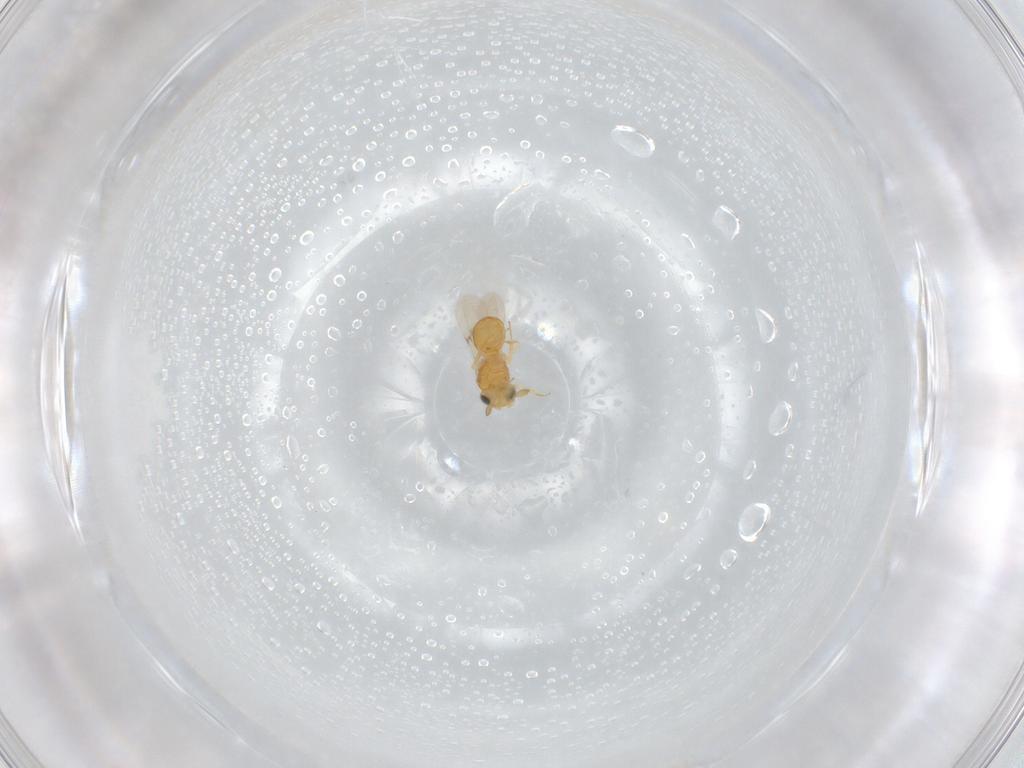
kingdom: Animalia
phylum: Arthropoda
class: Insecta
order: Hymenoptera
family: Scelionidae
